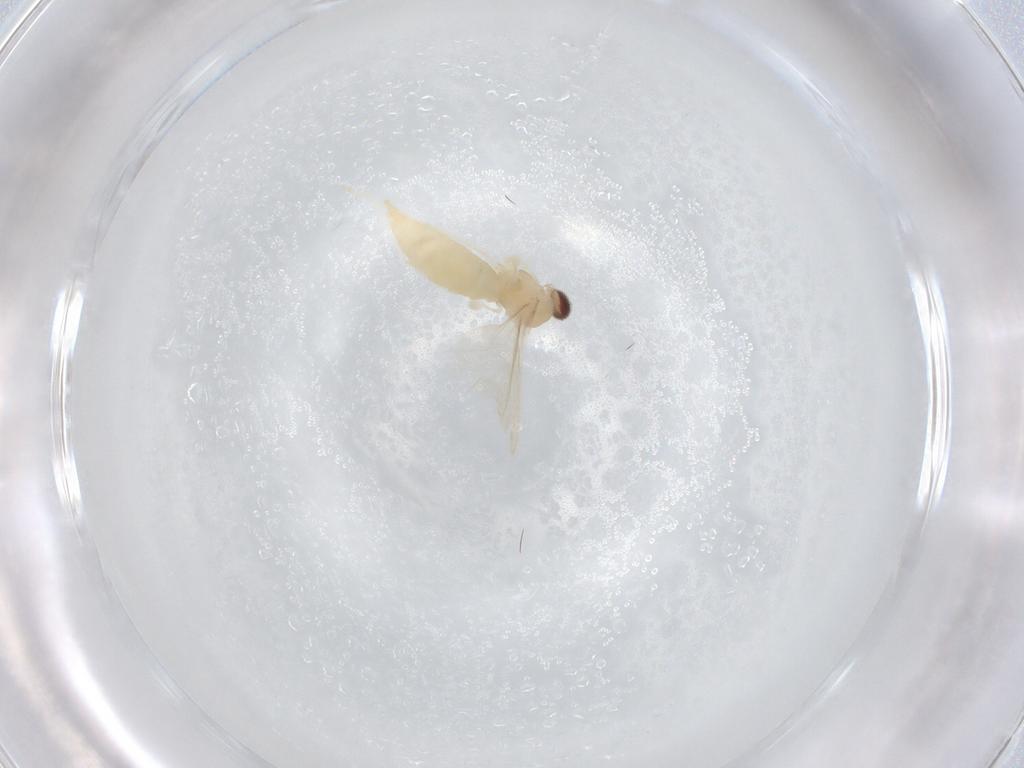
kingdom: Animalia
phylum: Arthropoda
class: Insecta
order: Diptera
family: Cecidomyiidae
